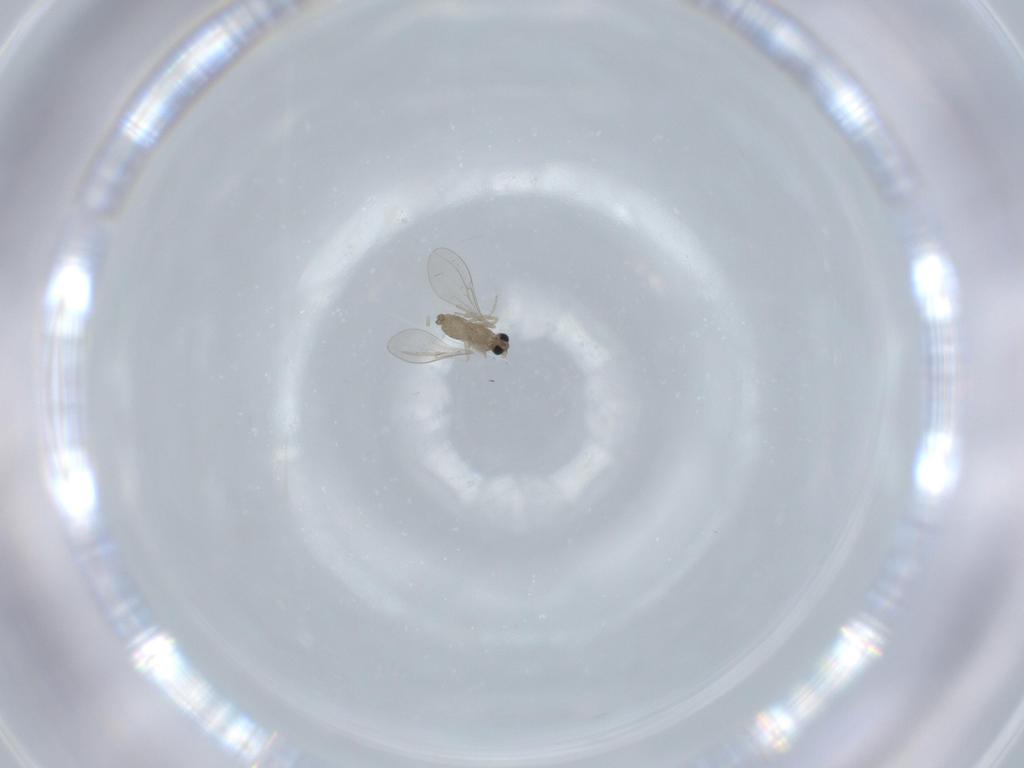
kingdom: Animalia
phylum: Arthropoda
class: Insecta
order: Diptera
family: Cecidomyiidae
